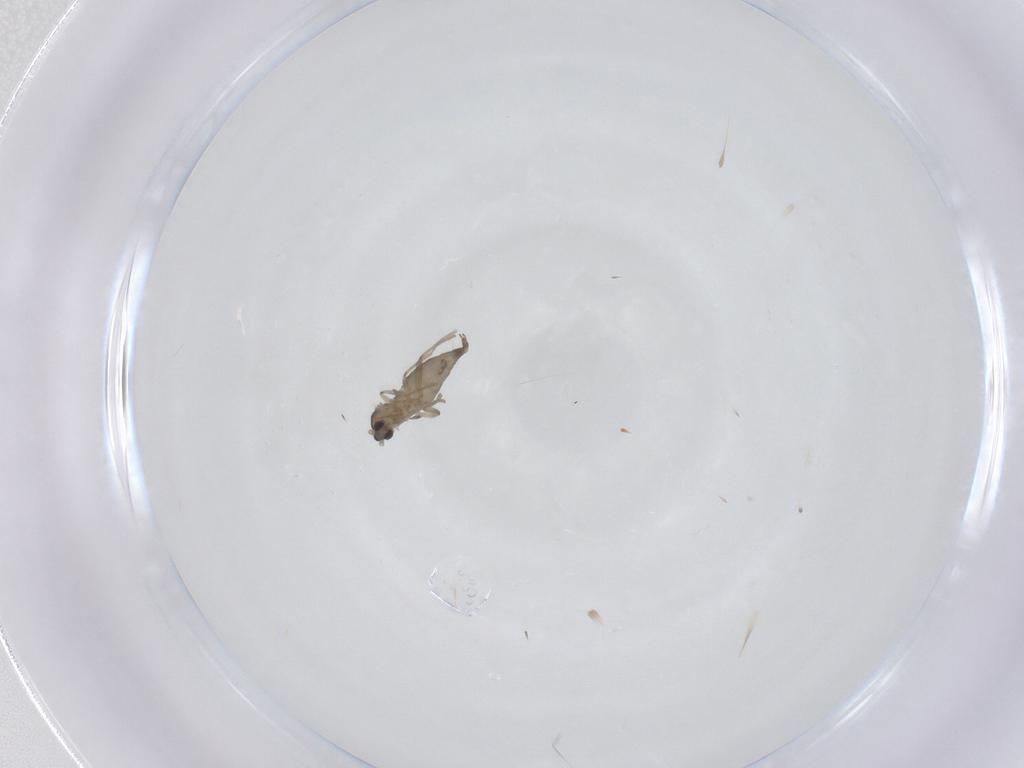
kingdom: Animalia
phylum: Arthropoda
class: Insecta
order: Diptera
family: Cecidomyiidae
